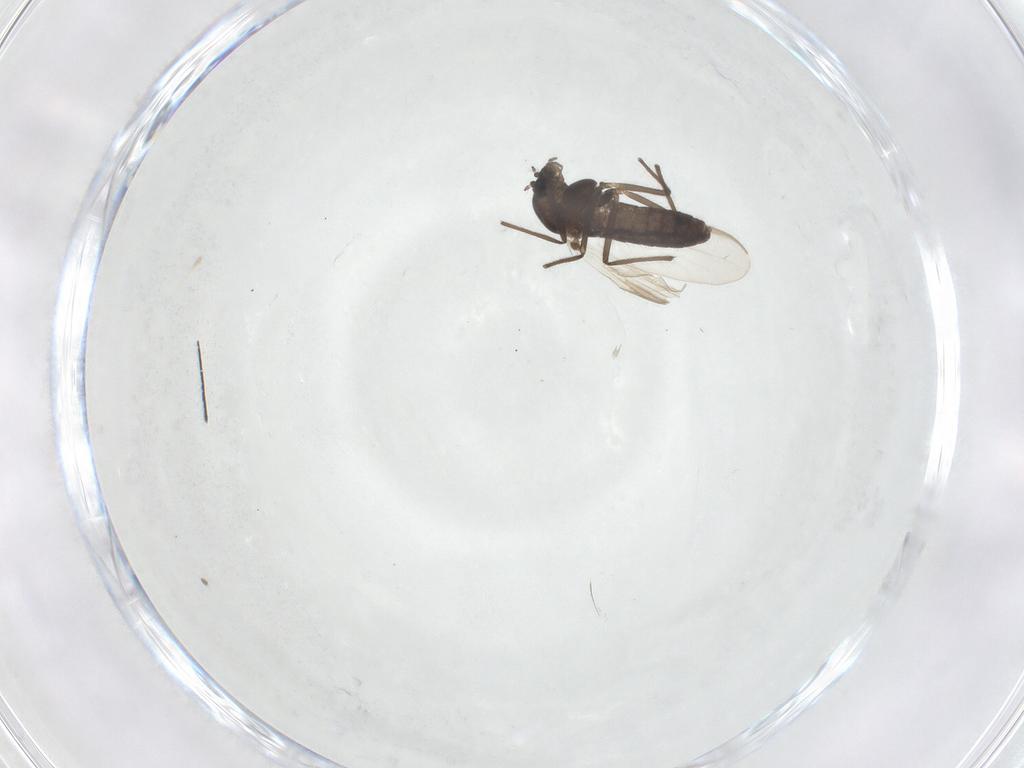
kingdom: Animalia
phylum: Arthropoda
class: Insecta
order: Diptera
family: Chironomidae
